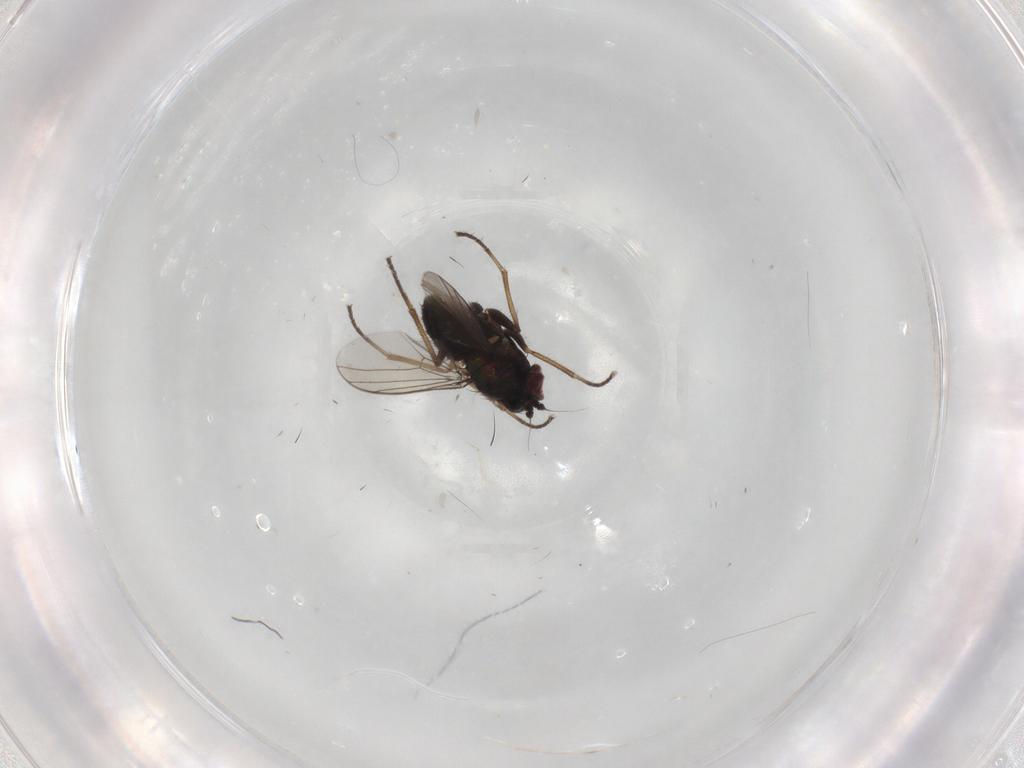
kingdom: Animalia
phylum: Arthropoda
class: Insecta
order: Diptera
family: Dolichopodidae
